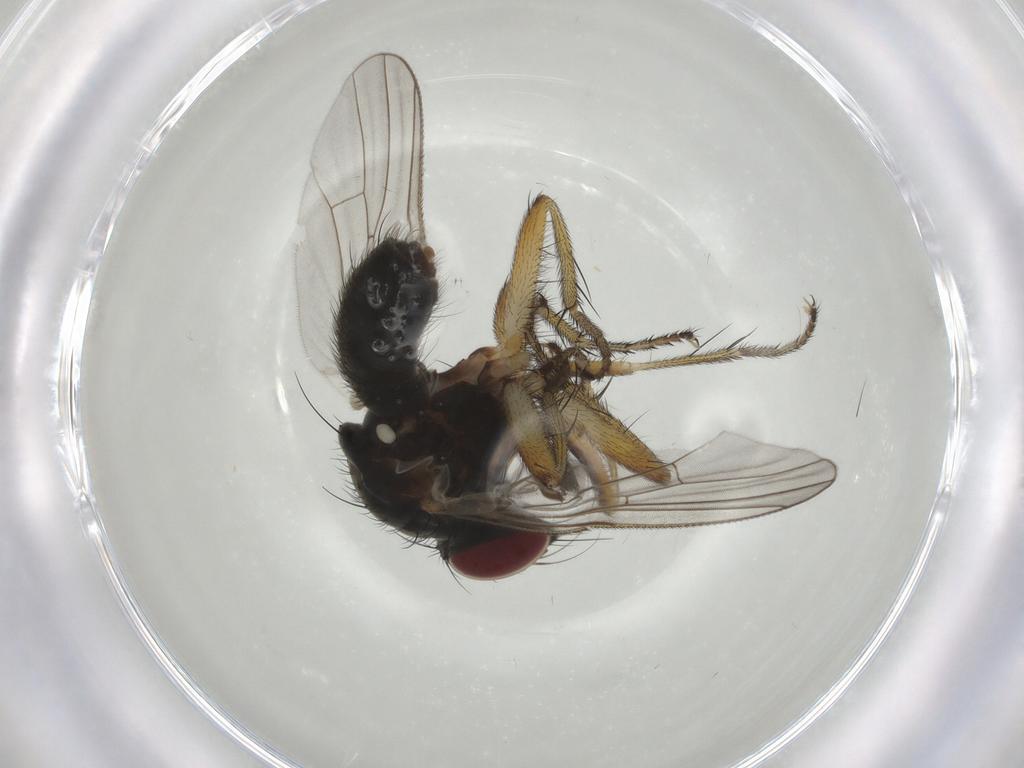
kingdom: Animalia
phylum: Arthropoda
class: Insecta
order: Diptera
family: Muscidae
